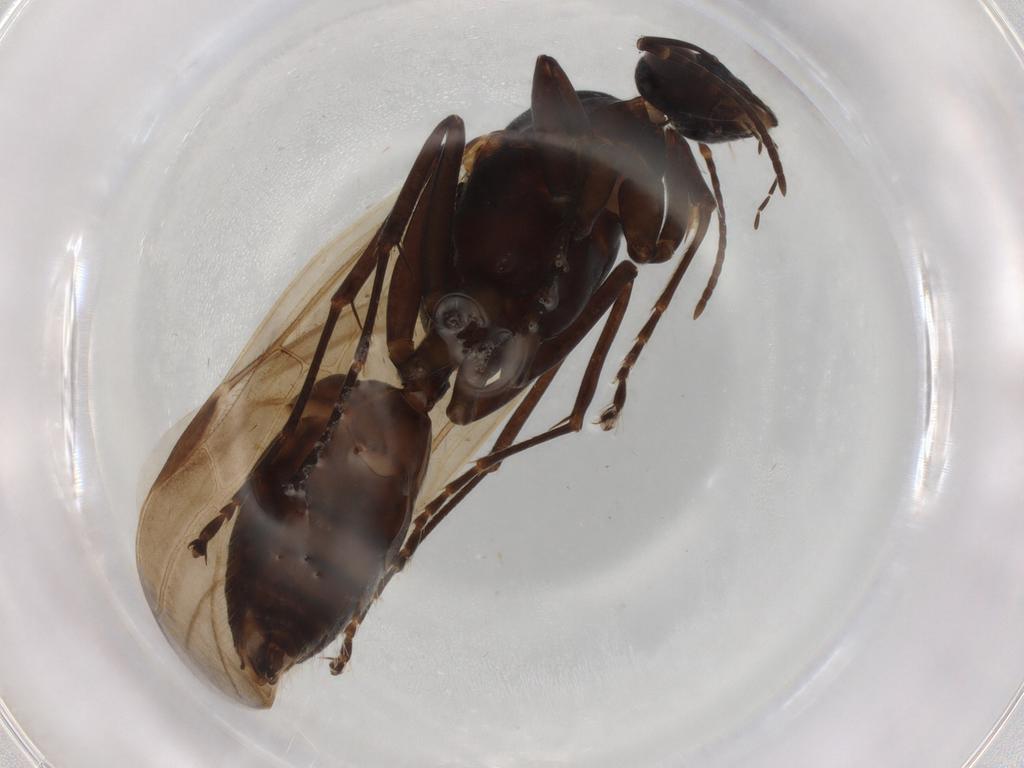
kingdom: Animalia
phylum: Arthropoda
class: Insecta
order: Hymenoptera
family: Formicidae
